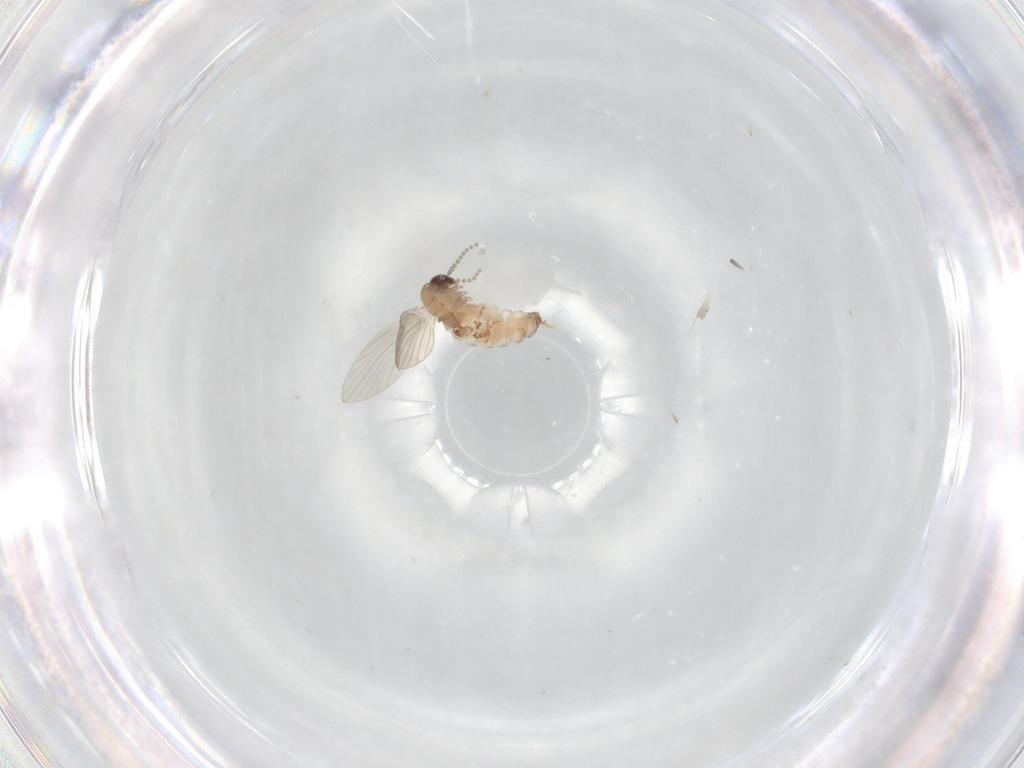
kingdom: Animalia
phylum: Arthropoda
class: Insecta
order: Diptera
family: Psychodidae
